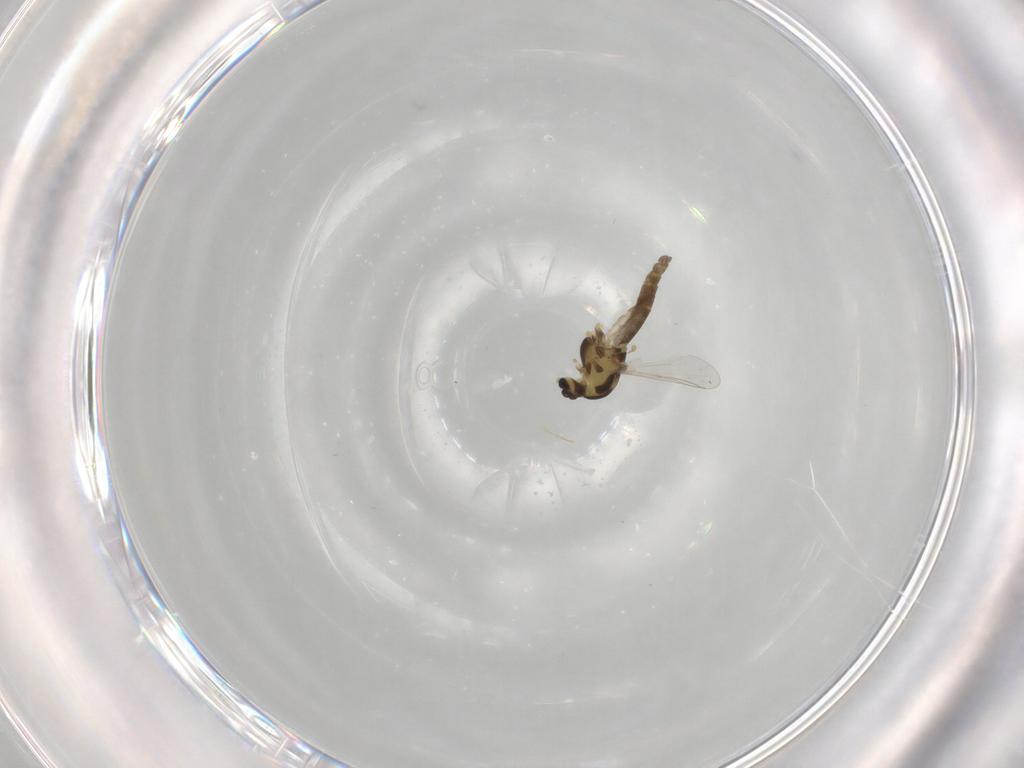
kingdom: Animalia
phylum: Arthropoda
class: Insecta
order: Diptera
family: Chironomidae
